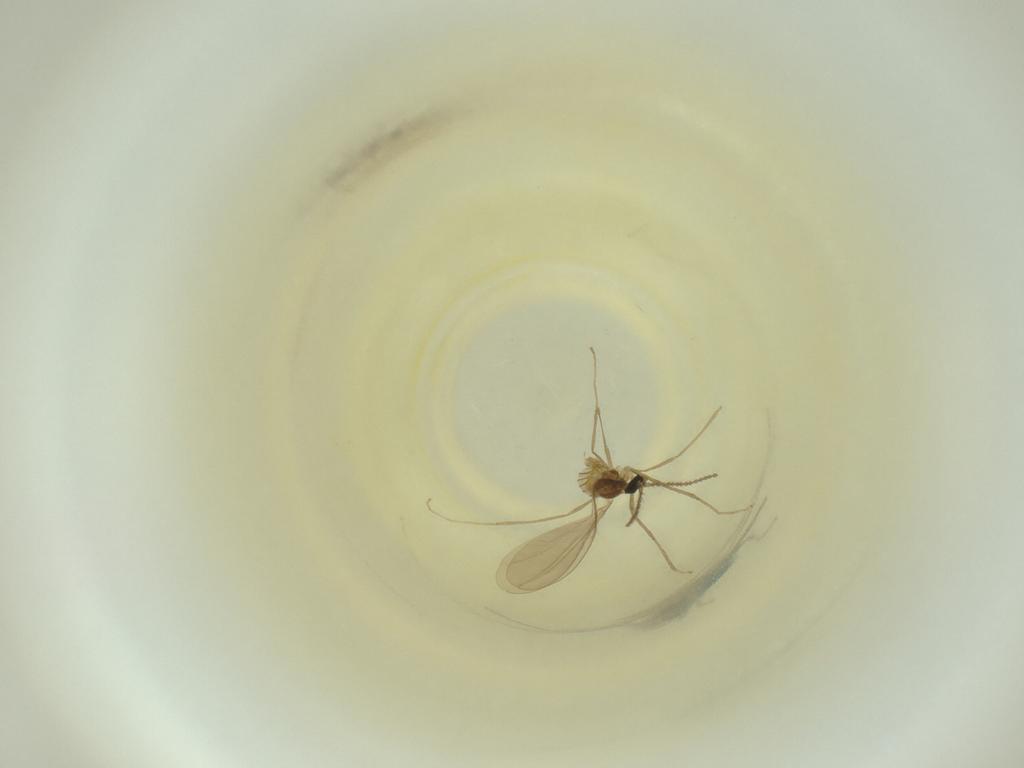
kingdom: Animalia
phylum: Arthropoda
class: Insecta
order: Diptera
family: Cecidomyiidae
